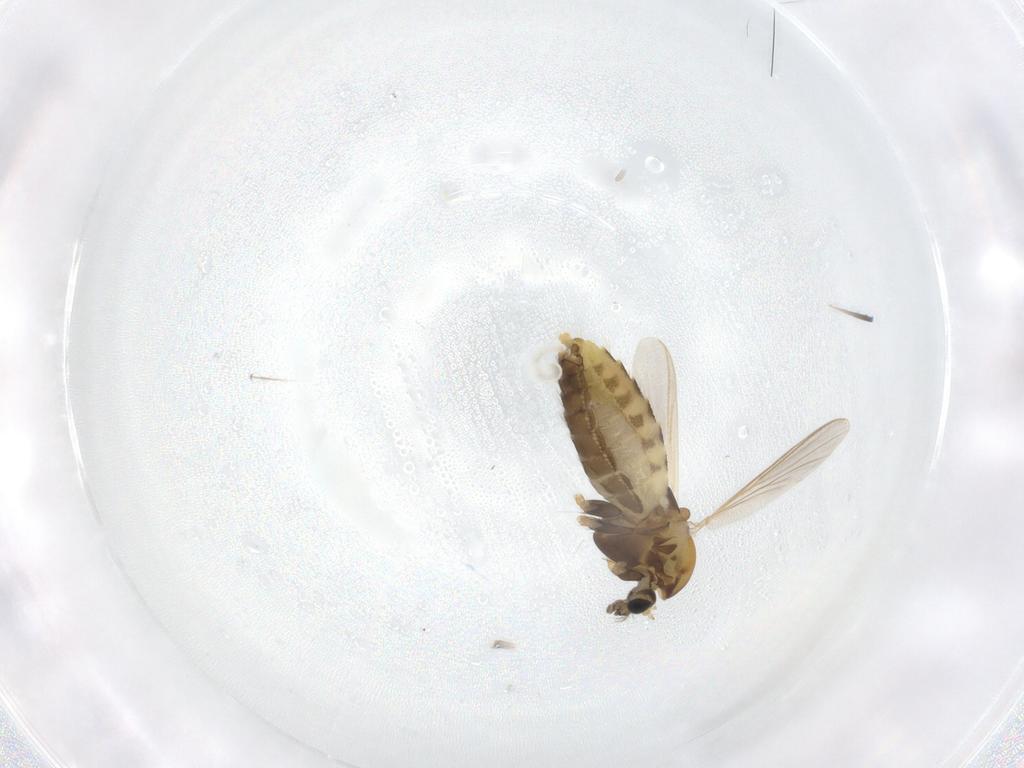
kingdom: Animalia
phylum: Arthropoda
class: Insecta
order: Diptera
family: Chironomidae
